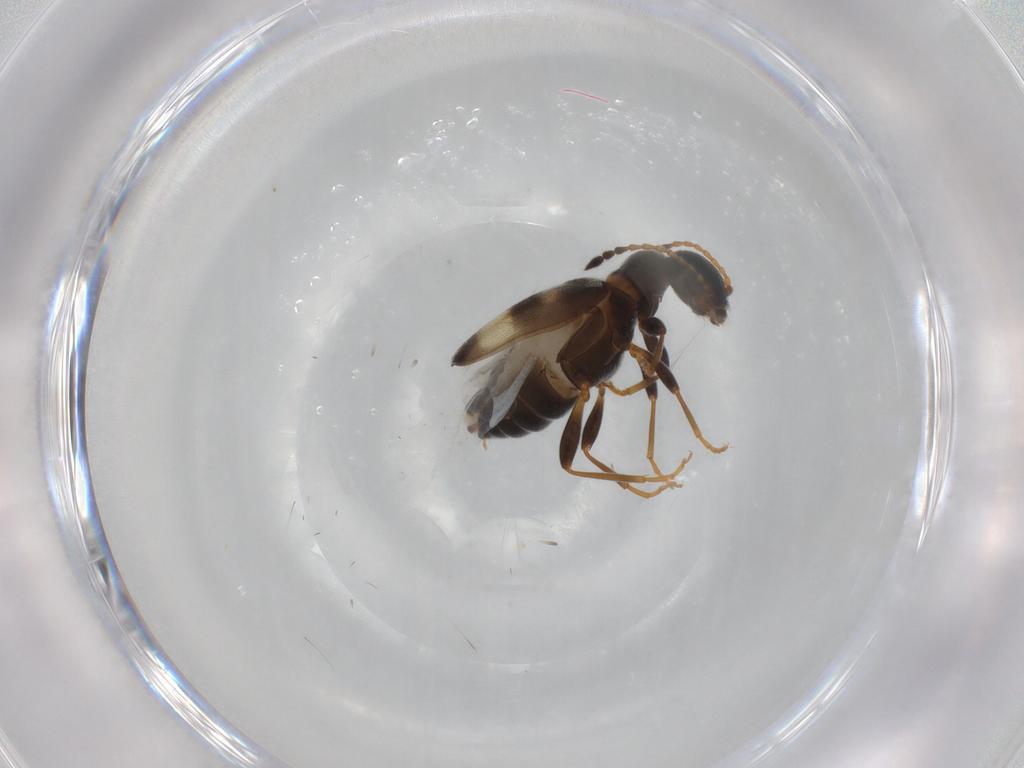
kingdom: Animalia
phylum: Arthropoda
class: Insecta
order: Coleoptera
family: Anthicidae
